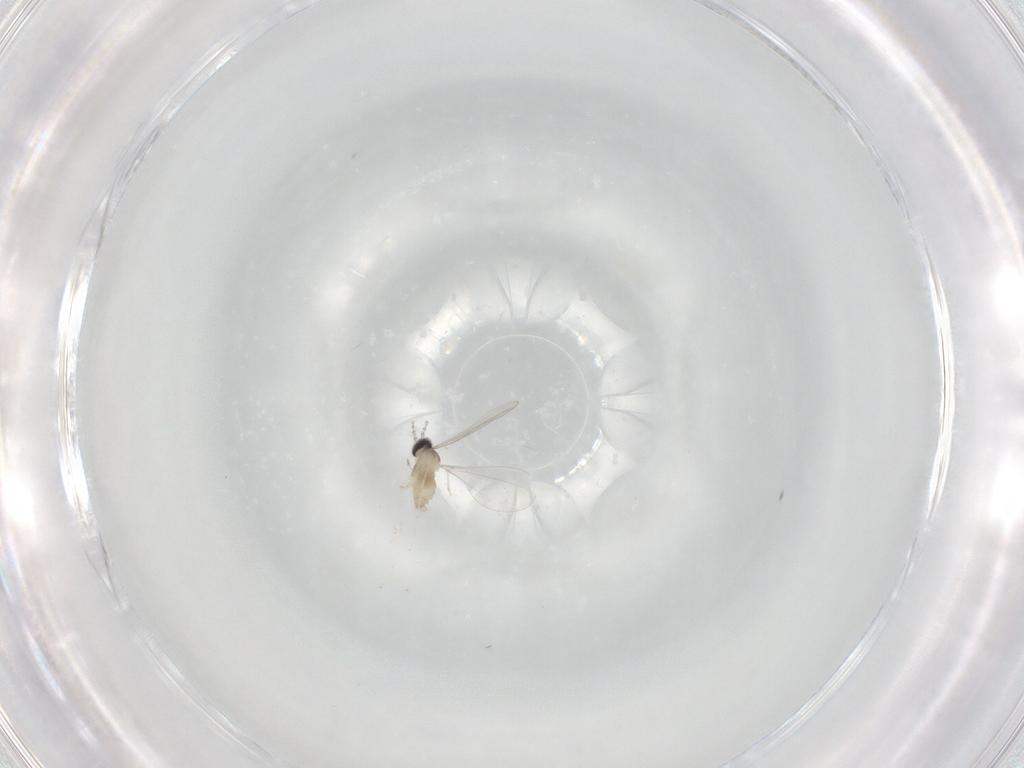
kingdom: Animalia
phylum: Arthropoda
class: Insecta
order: Diptera
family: Cecidomyiidae
